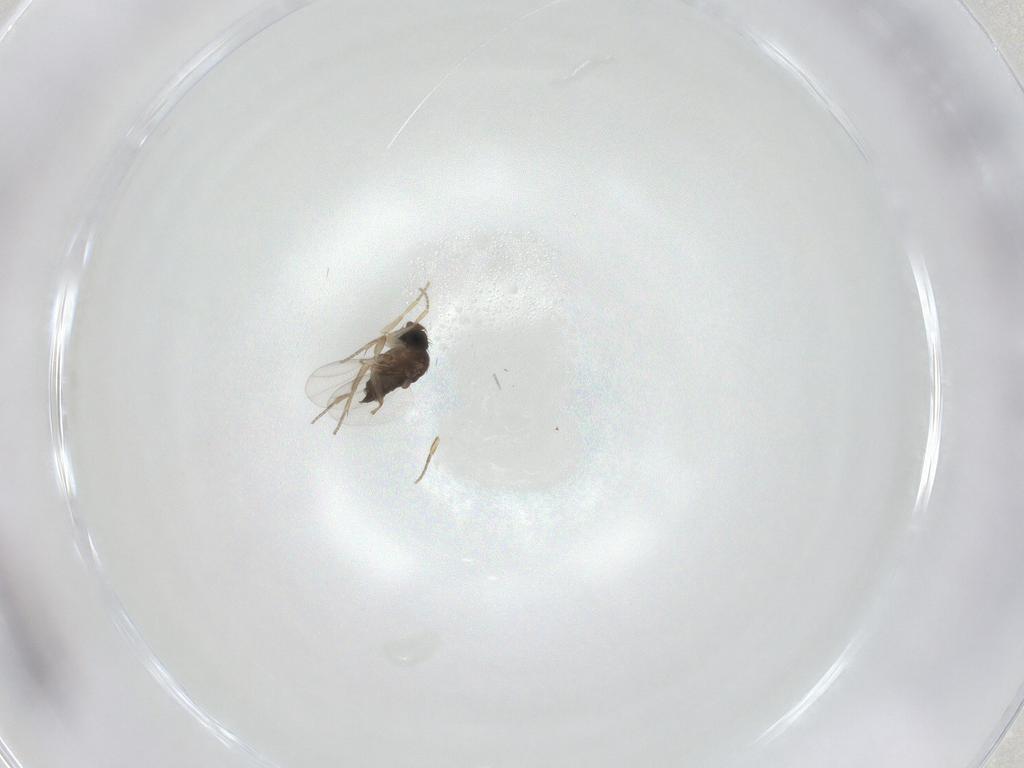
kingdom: Animalia
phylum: Arthropoda
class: Insecta
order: Diptera
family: Phoridae
